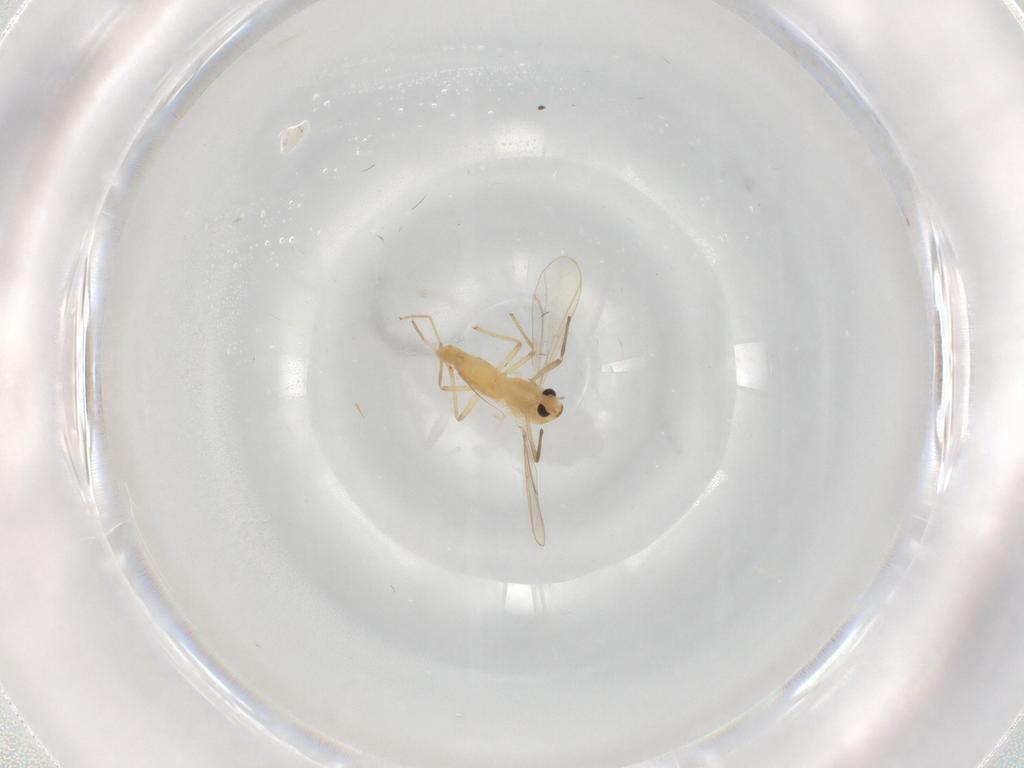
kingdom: Animalia
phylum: Arthropoda
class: Insecta
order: Diptera
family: Chironomidae
